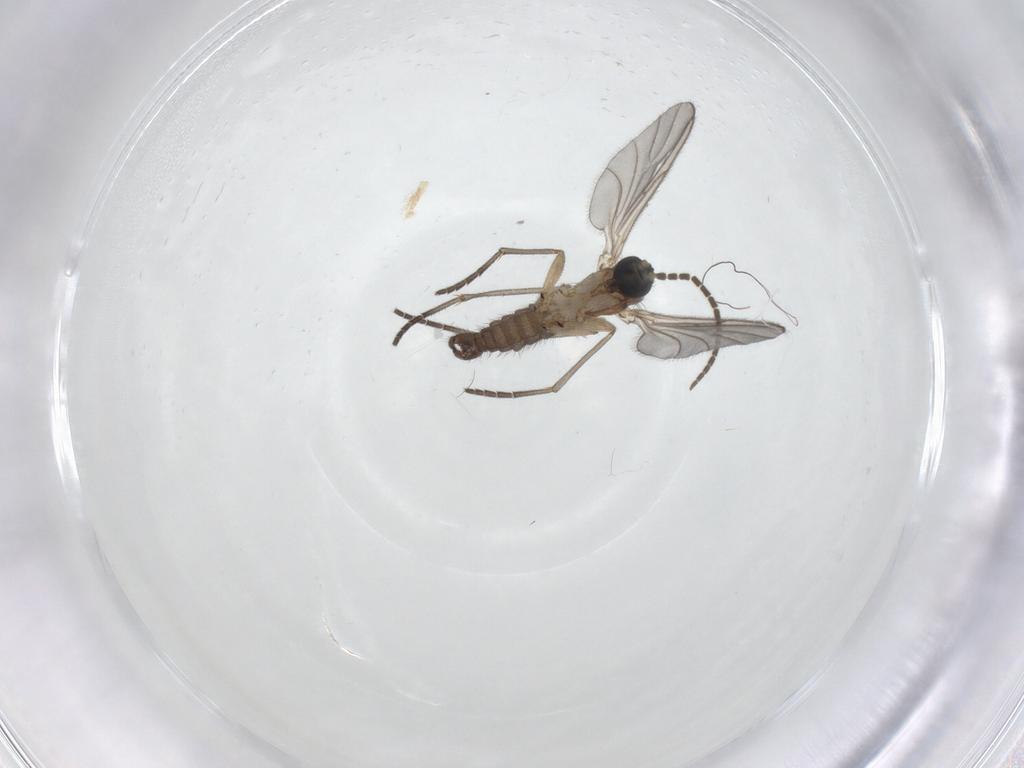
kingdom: Animalia
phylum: Arthropoda
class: Insecta
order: Diptera
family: Sciaridae
